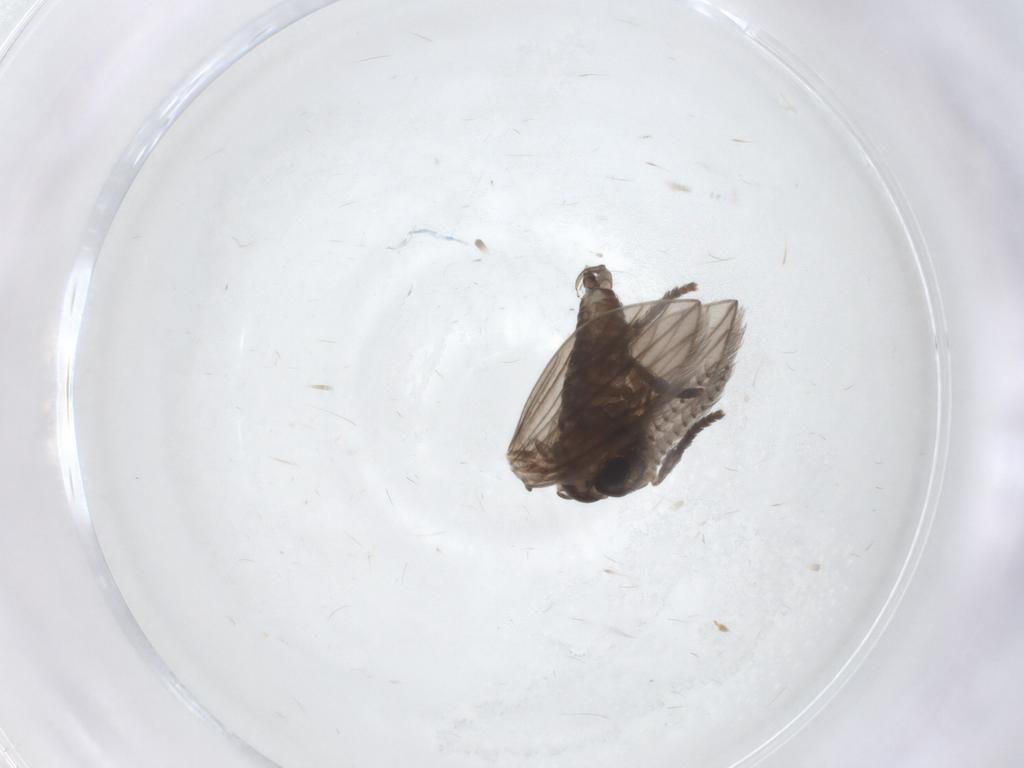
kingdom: Animalia
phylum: Arthropoda
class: Insecta
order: Diptera
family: Psychodidae
